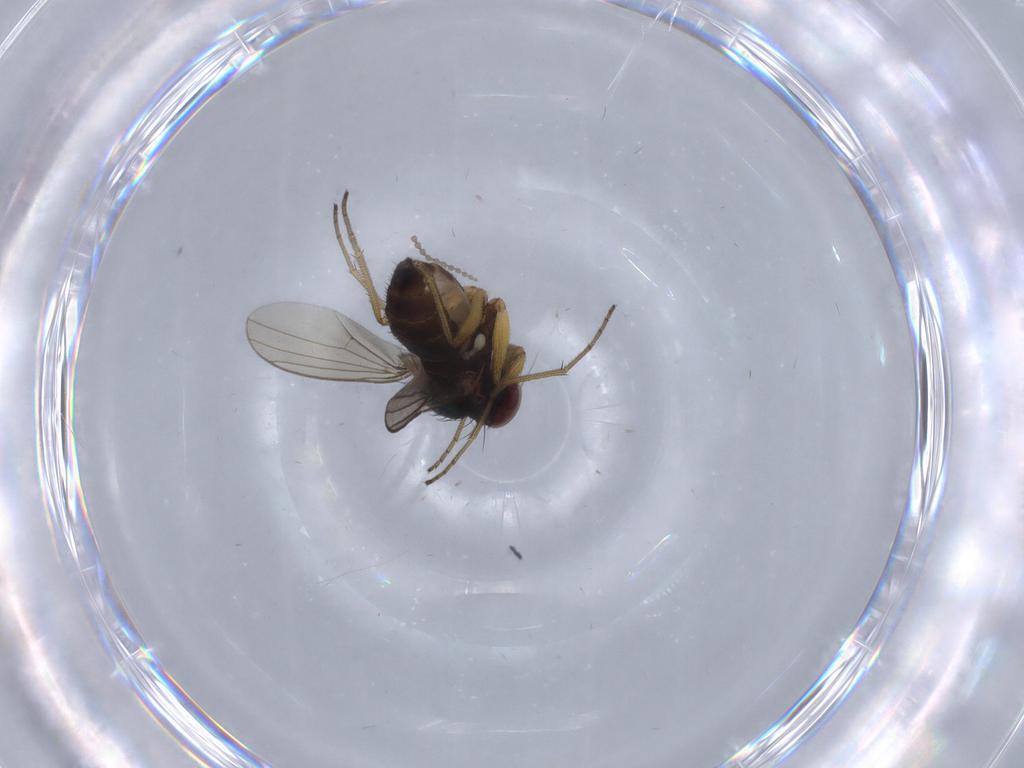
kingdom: Animalia
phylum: Arthropoda
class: Insecta
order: Diptera
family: Dolichopodidae
